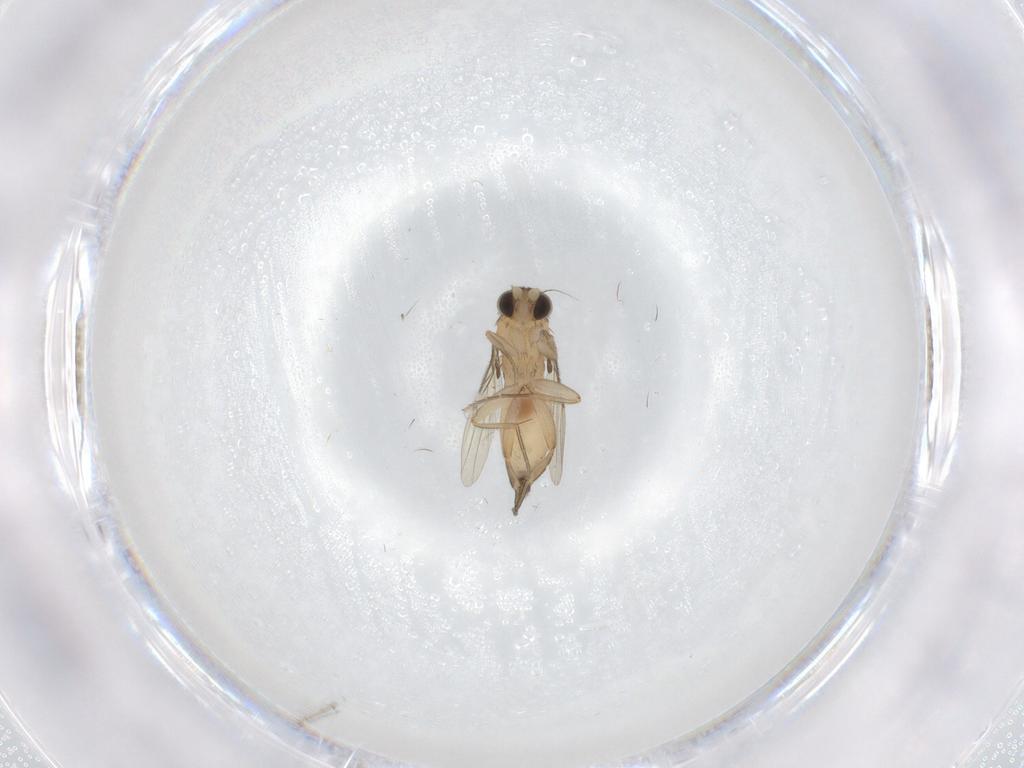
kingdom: Animalia
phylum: Arthropoda
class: Insecta
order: Diptera
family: Phoridae
